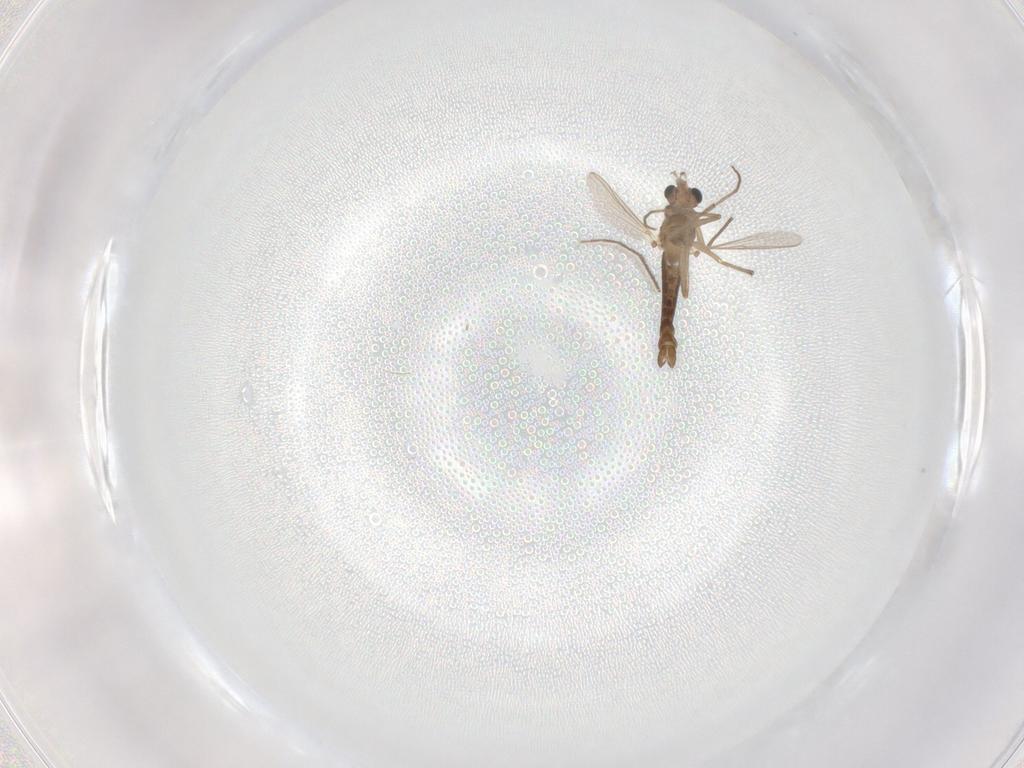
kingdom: Animalia
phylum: Arthropoda
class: Insecta
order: Diptera
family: Chironomidae
